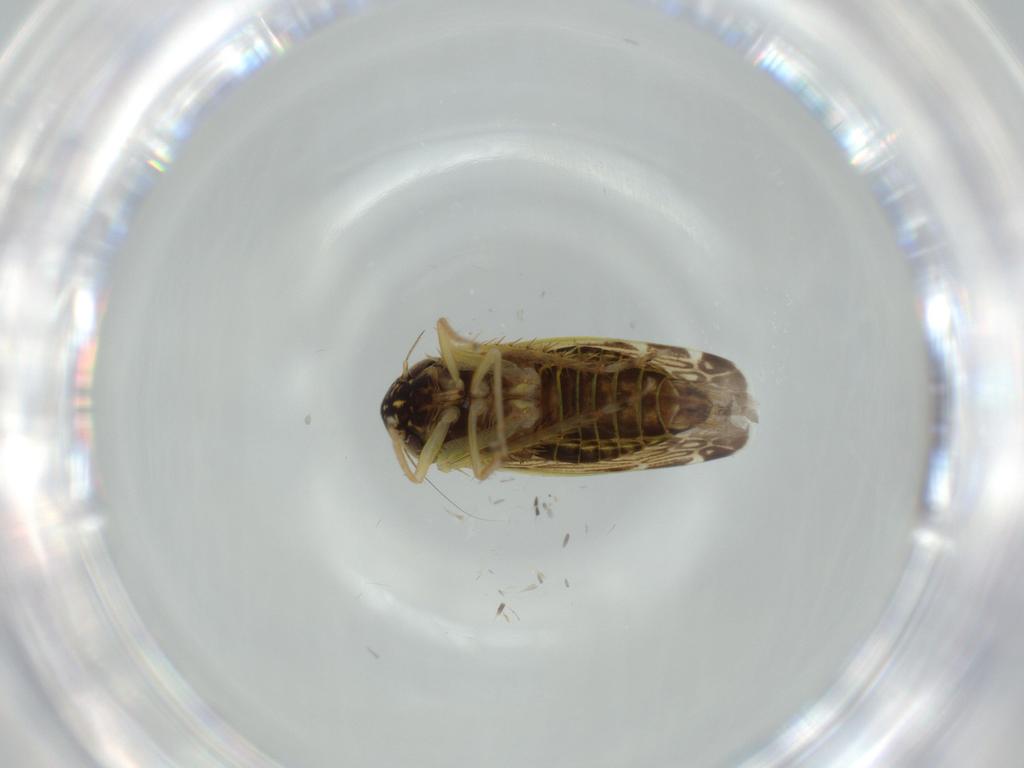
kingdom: Animalia
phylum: Arthropoda
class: Insecta
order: Hemiptera
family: Cicadellidae
